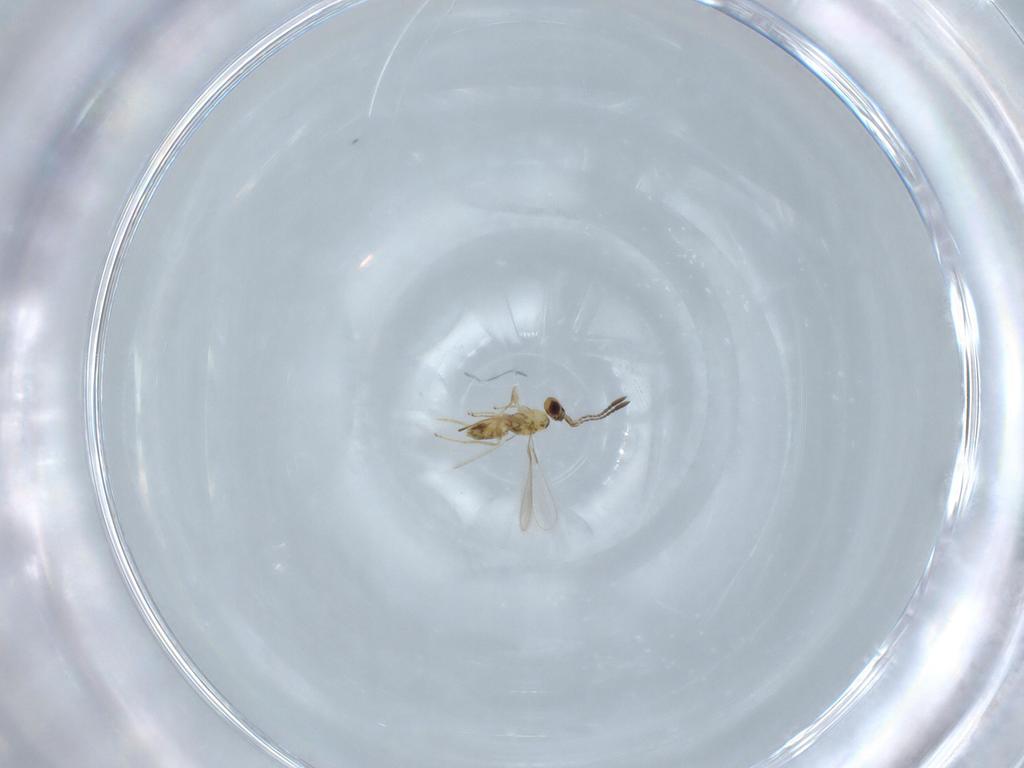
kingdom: Animalia
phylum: Arthropoda
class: Insecta
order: Hymenoptera
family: Mymaridae
